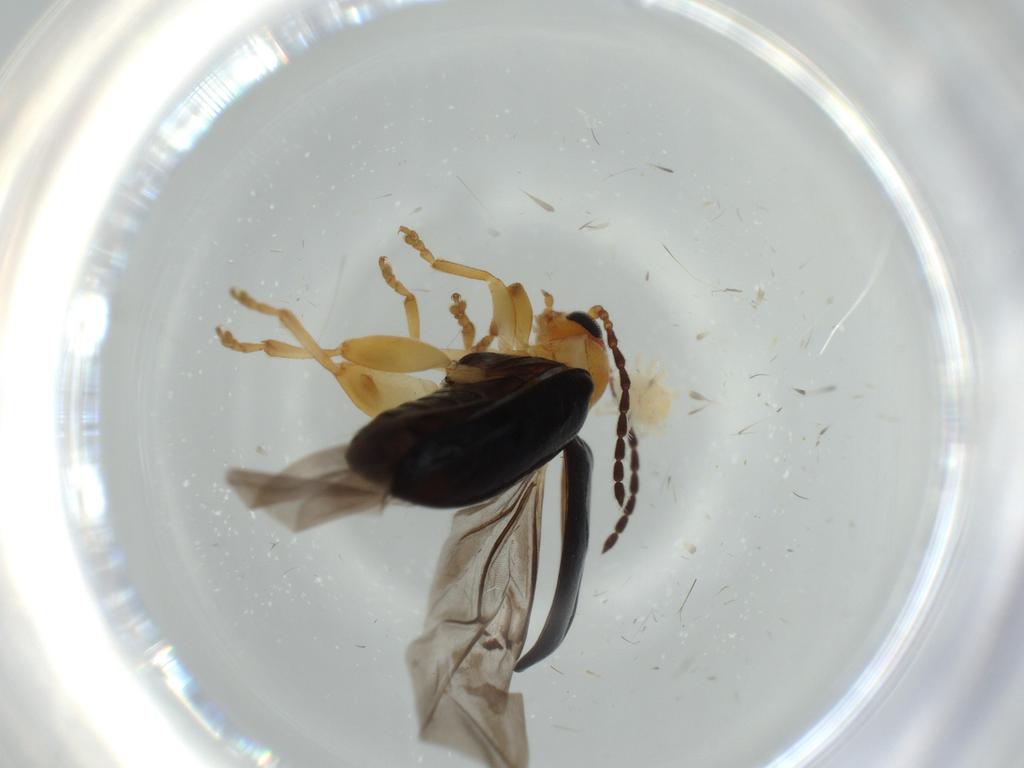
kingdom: Animalia
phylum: Arthropoda
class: Insecta
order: Coleoptera
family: Chrysomelidae
